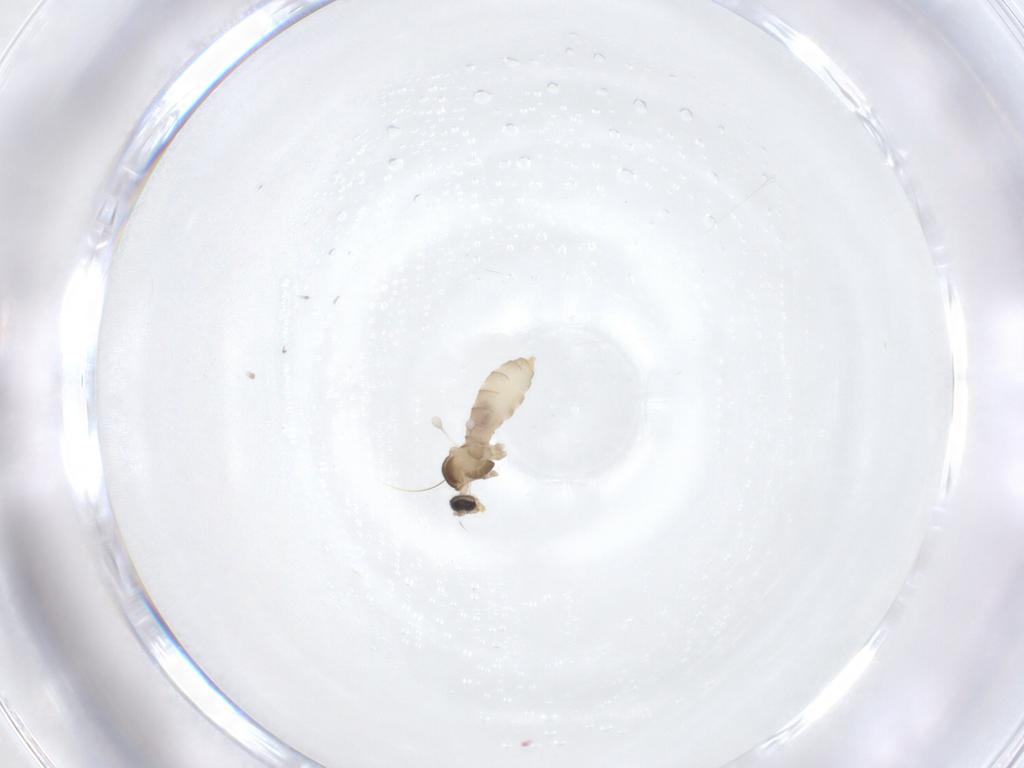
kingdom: Animalia
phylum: Arthropoda
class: Insecta
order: Diptera
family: Cecidomyiidae
